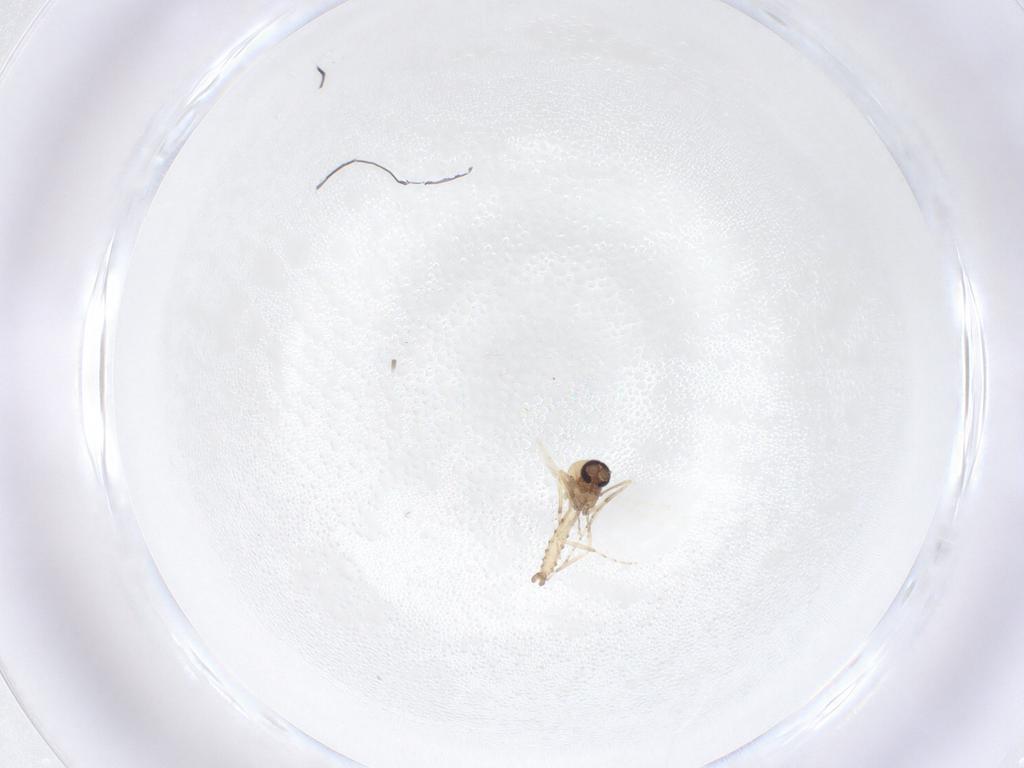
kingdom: Animalia
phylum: Arthropoda
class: Insecta
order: Diptera
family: Ceratopogonidae
